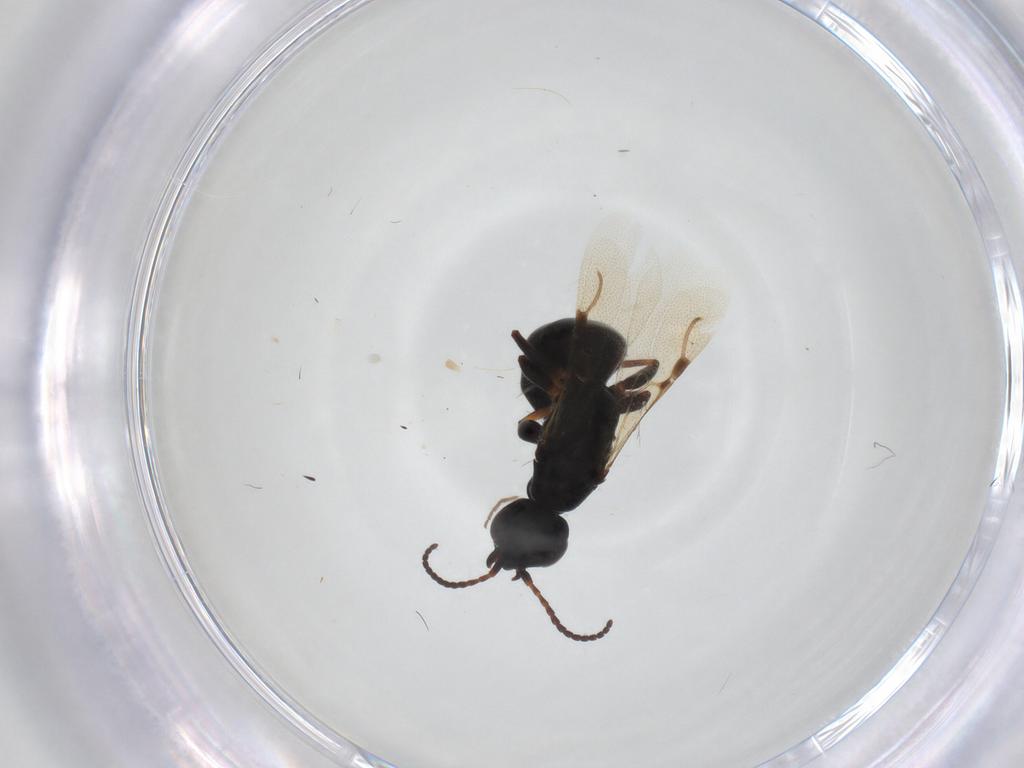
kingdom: Animalia
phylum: Arthropoda
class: Insecta
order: Hymenoptera
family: Bethylidae
